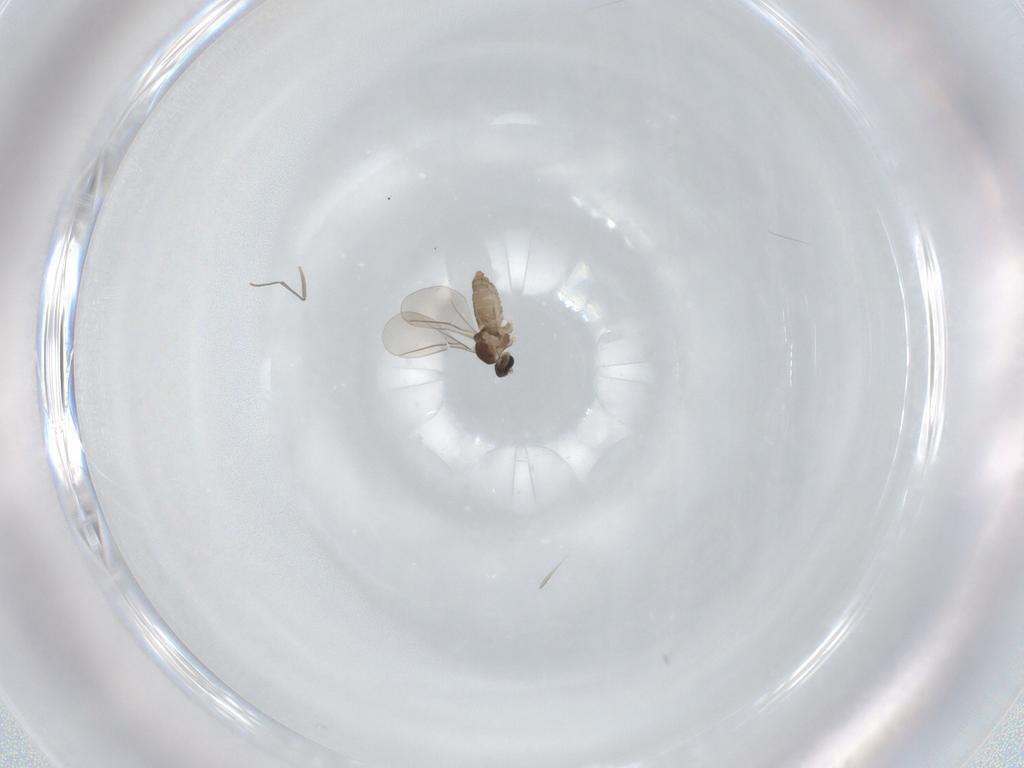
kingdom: Animalia
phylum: Arthropoda
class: Insecta
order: Diptera
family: Sciaridae
